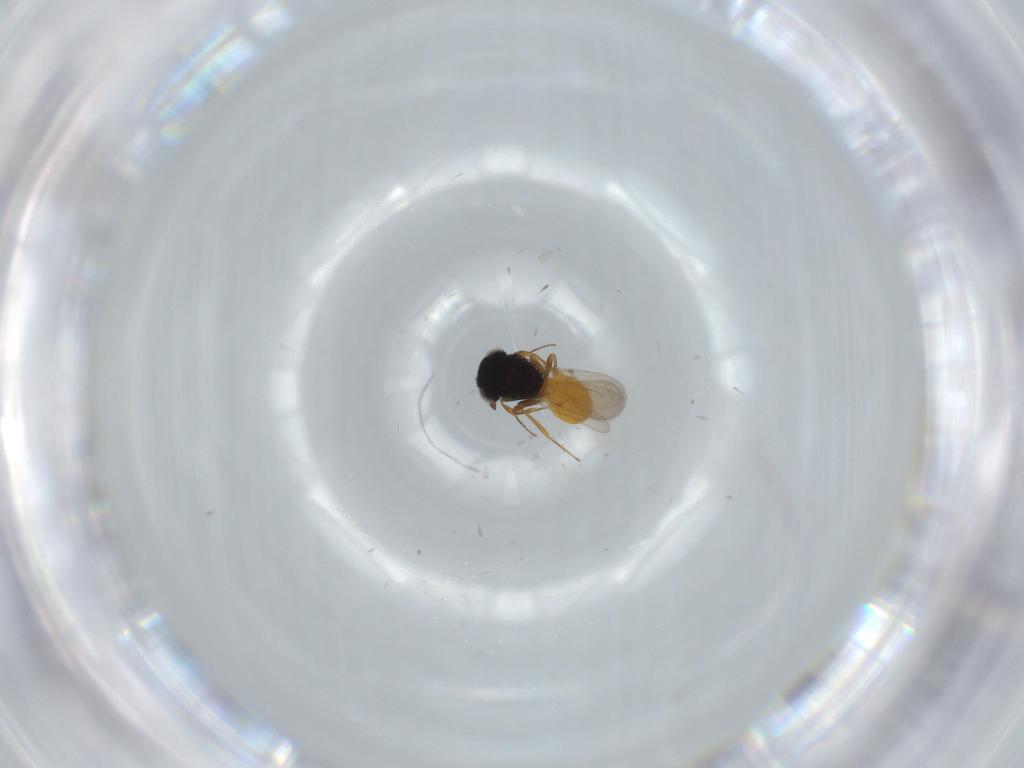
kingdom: Animalia
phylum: Arthropoda
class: Insecta
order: Hymenoptera
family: Scelionidae
